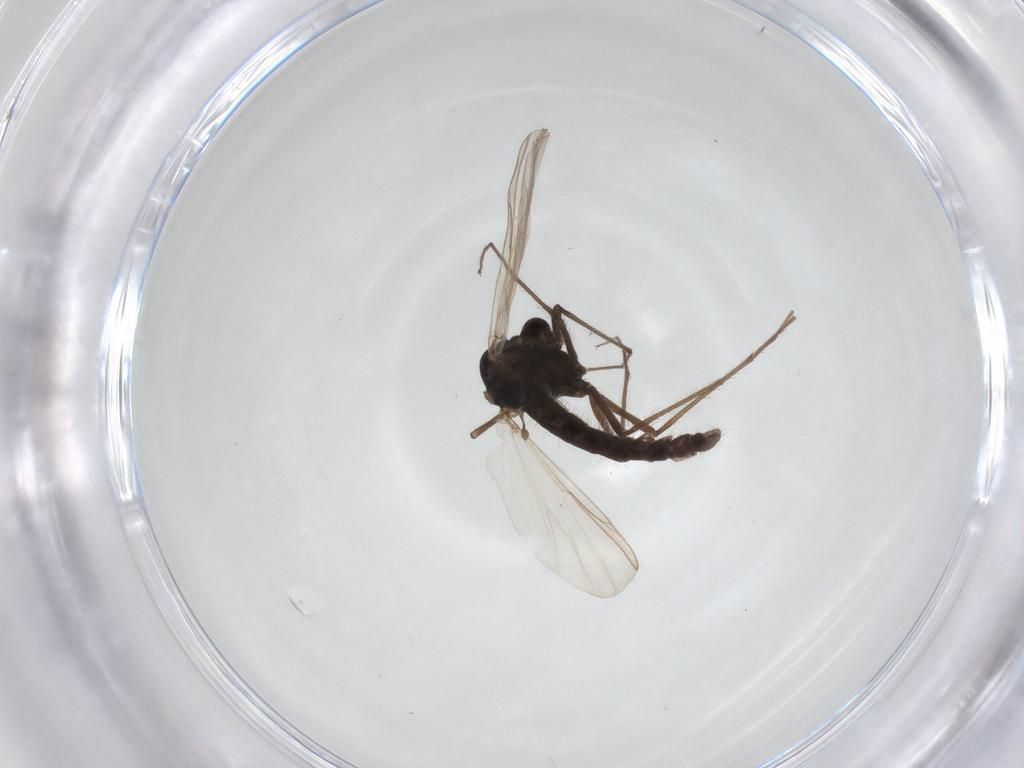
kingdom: Animalia
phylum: Arthropoda
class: Insecta
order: Diptera
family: Chironomidae
